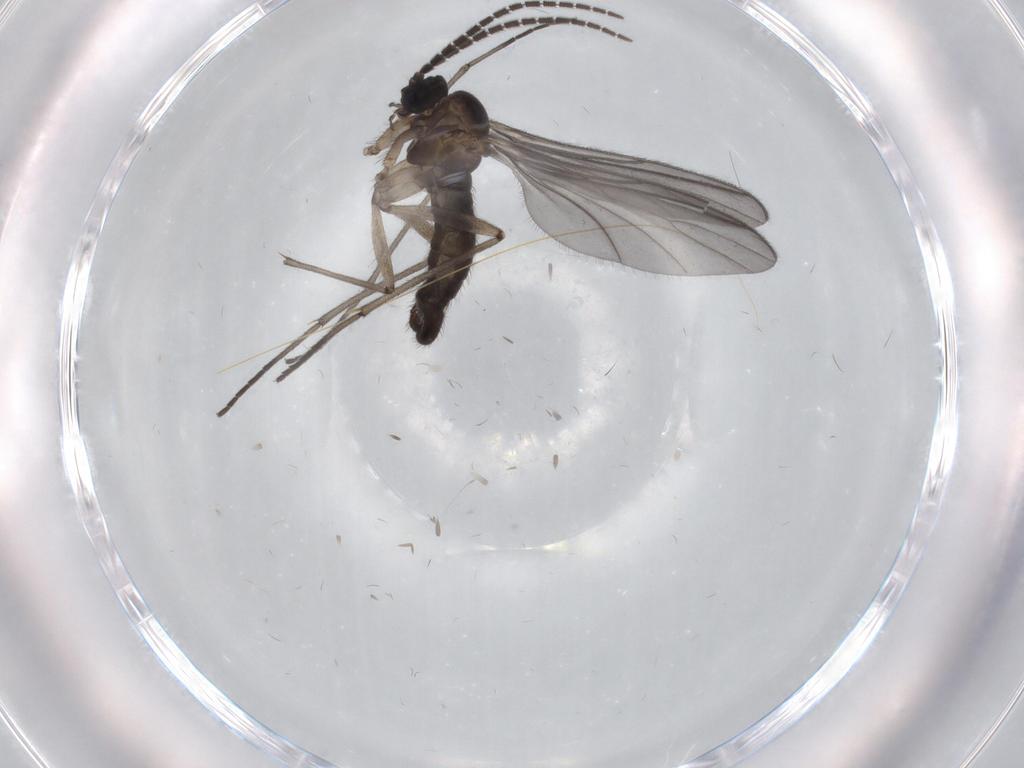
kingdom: Animalia
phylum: Arthropoda
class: Insecta
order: Diptera
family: Sciaridae
